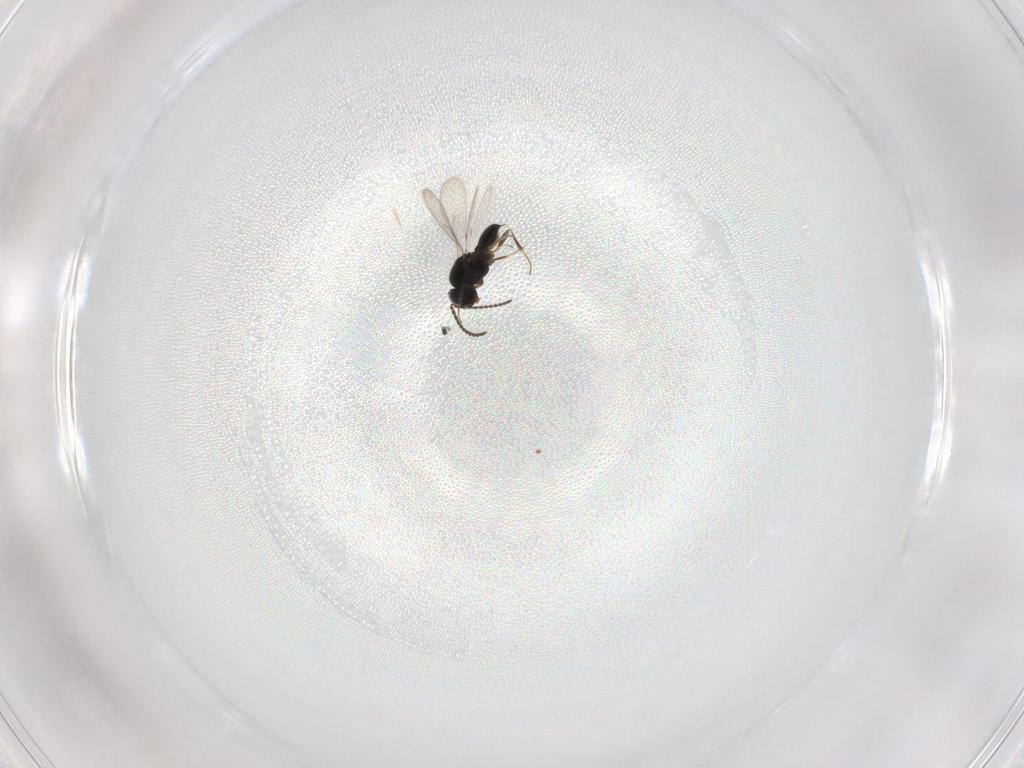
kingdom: Animalia
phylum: Arthropoda
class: Insecta
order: Hymenoptera
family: Scelionidae
